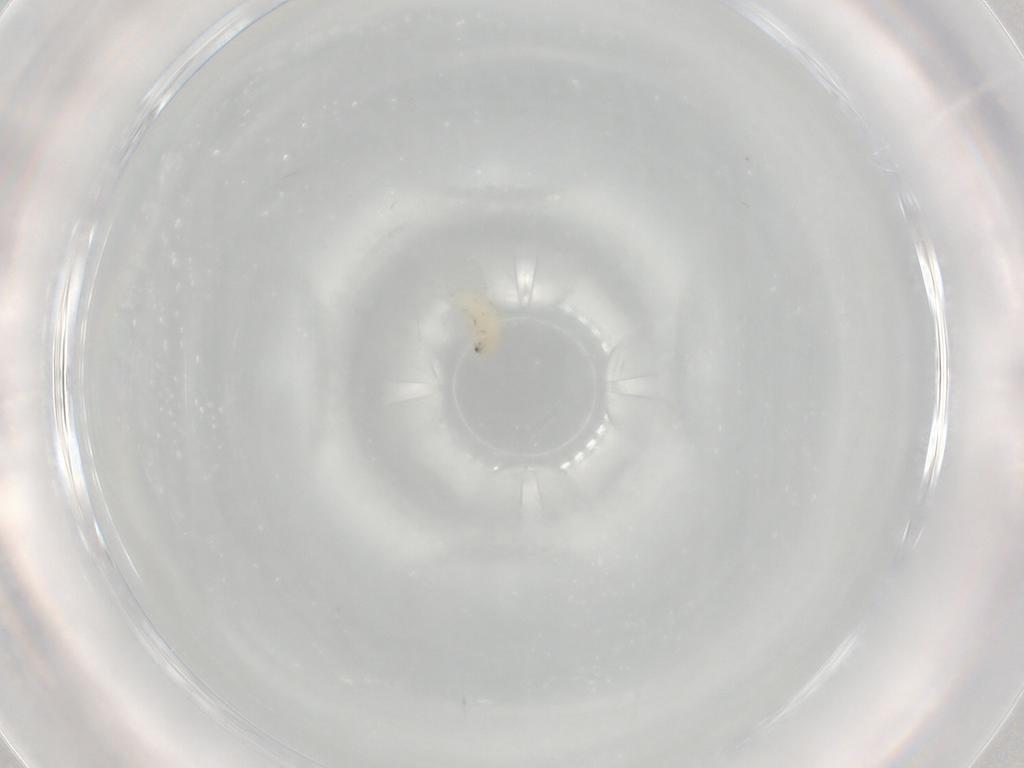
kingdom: Animalia
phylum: Arthropoda
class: Insecta
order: Coleoptera
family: Chrysomelidae
